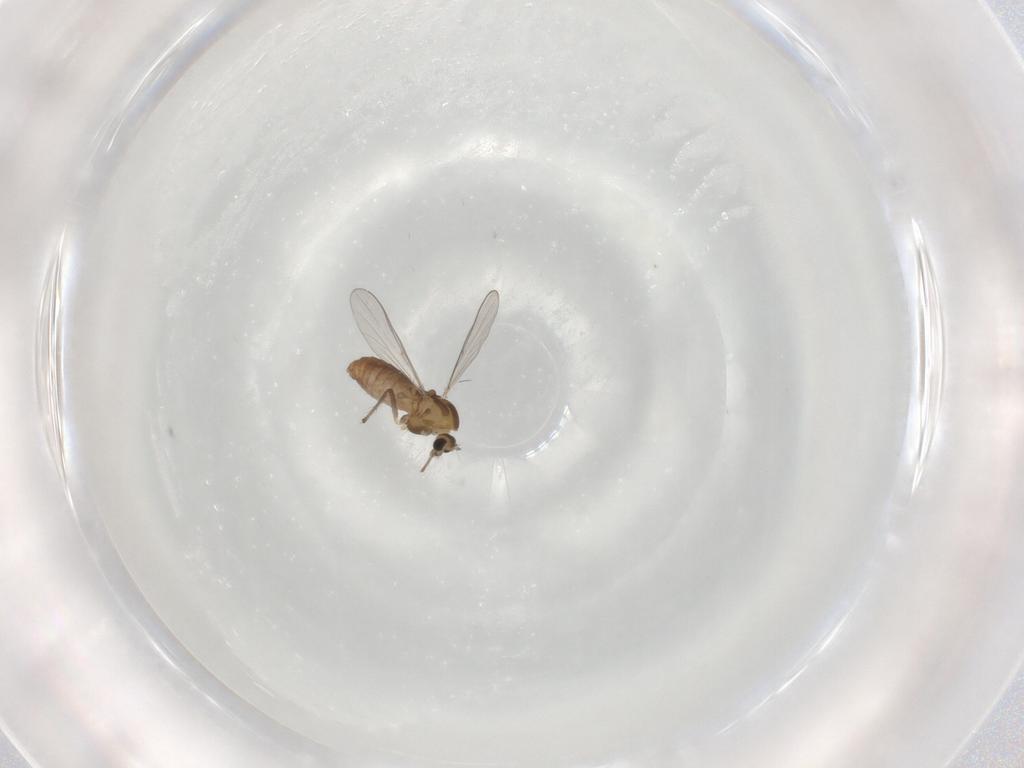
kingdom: Animalia
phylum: Arthropoda
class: Insecta
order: Diptera
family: Chironomidae
